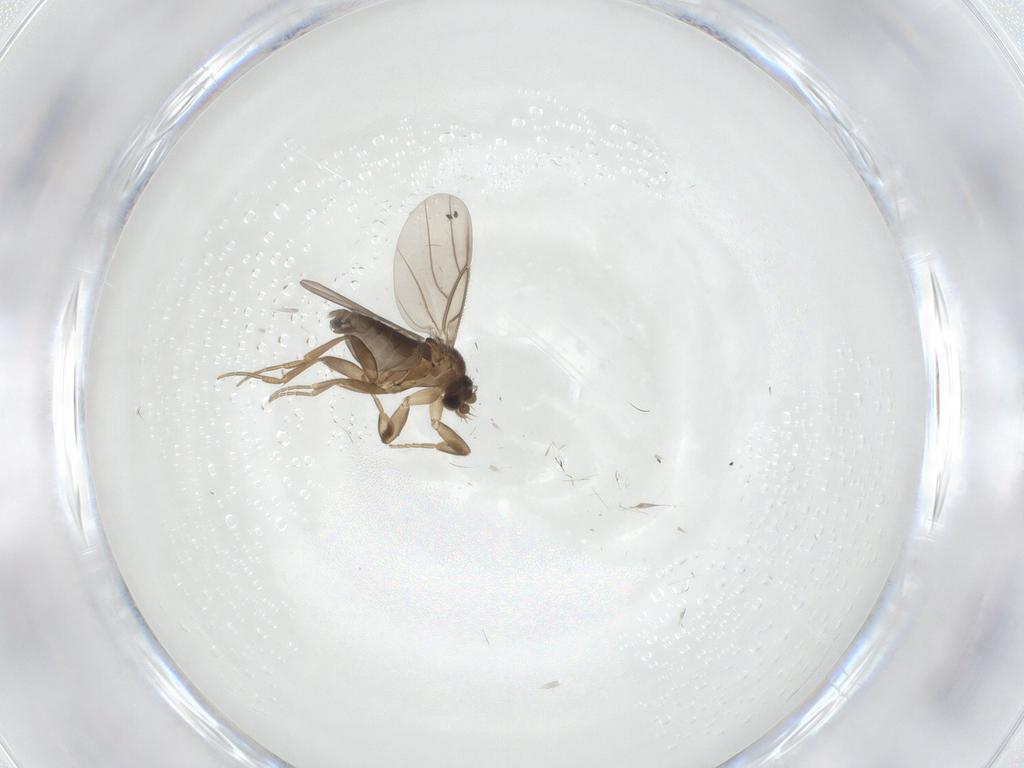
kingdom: Animalia
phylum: Arthropoda
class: Insecta
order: Diptera
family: Phoridae
